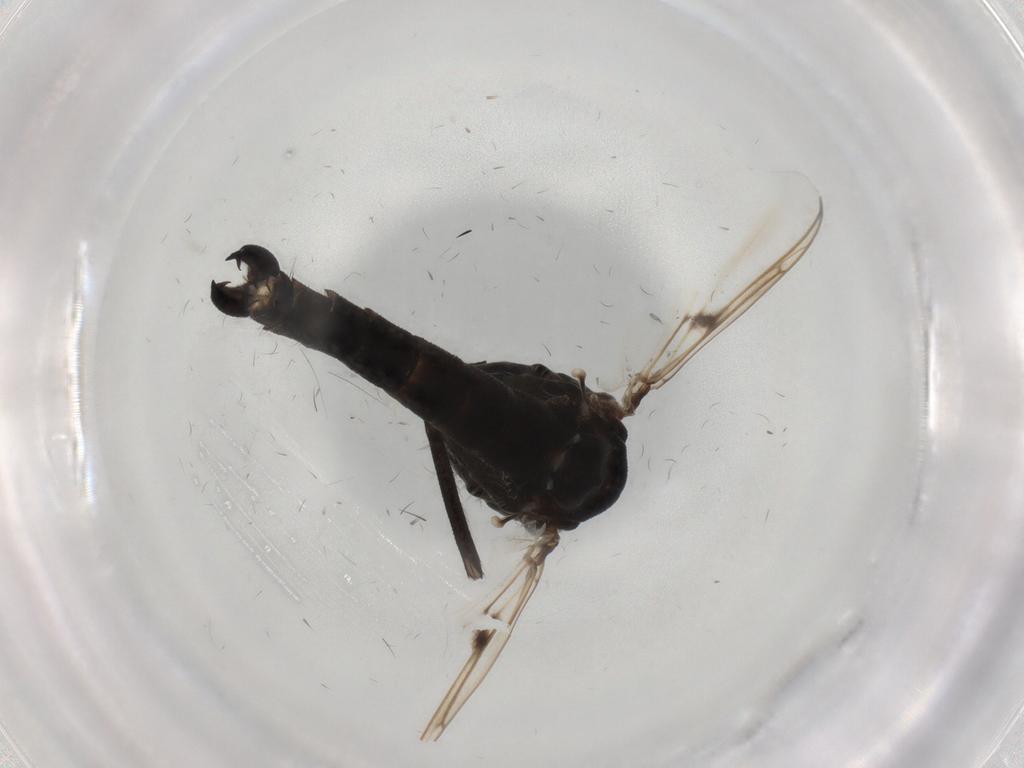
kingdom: Animalia
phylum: Arthropoda
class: Insecta
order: Diptera
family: Chironomidae
